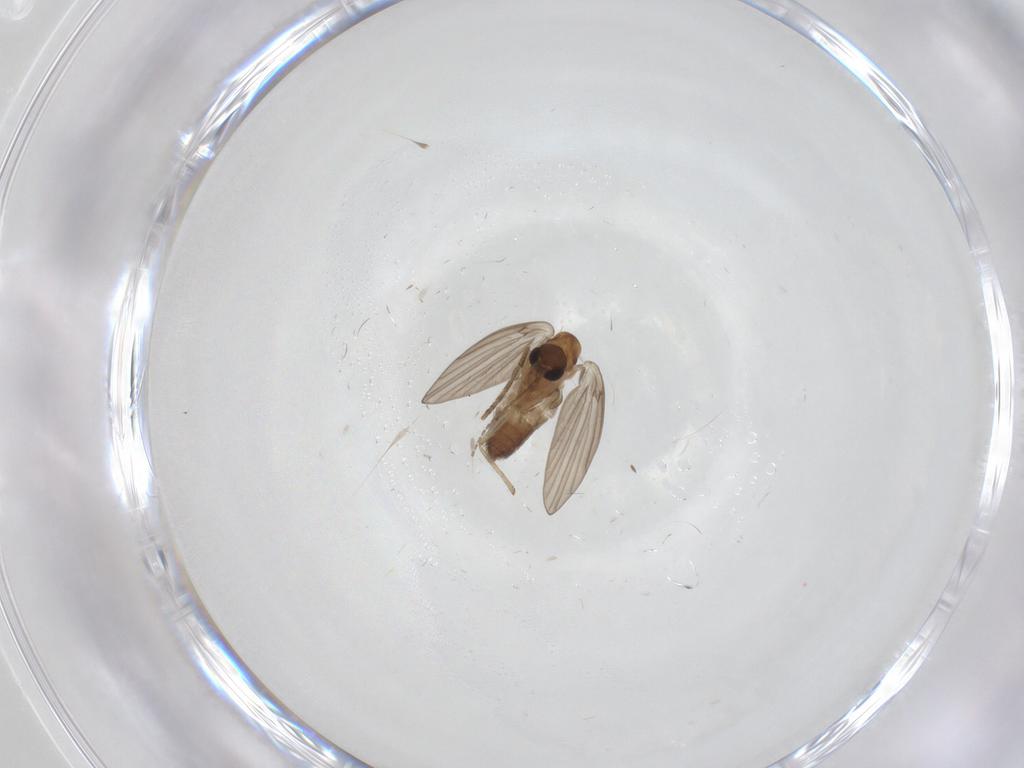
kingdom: Animalia
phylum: Arthropoda
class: Insecta
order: Diptera
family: Chironomidae
